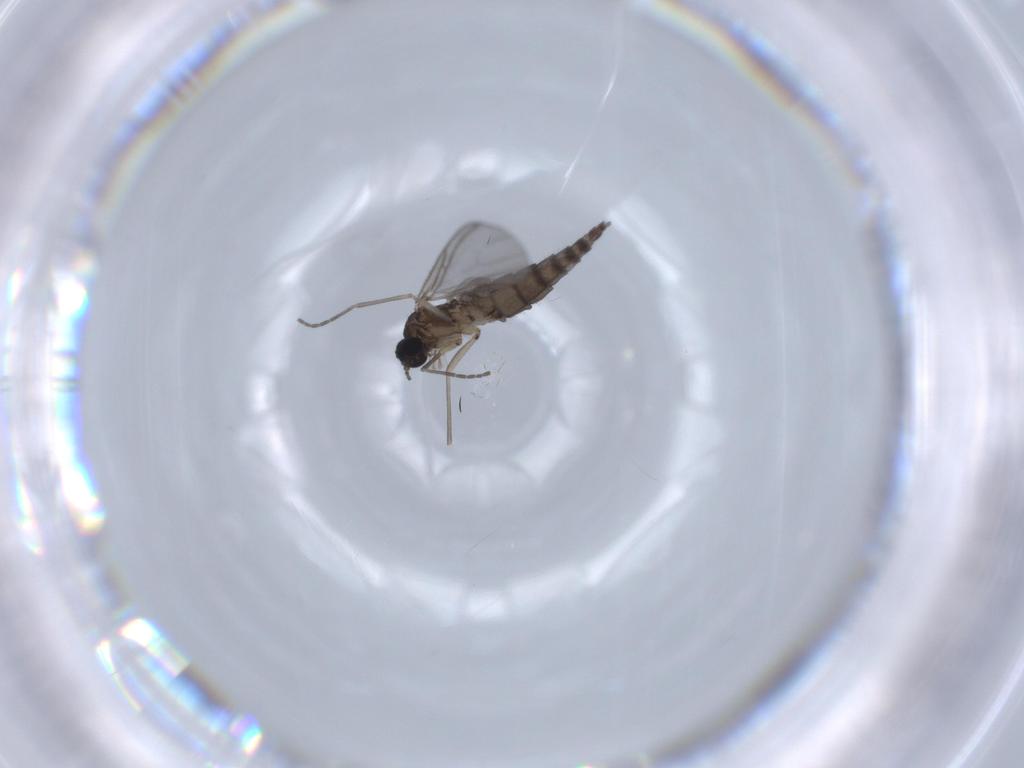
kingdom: Animalia
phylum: Arthropoda
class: Insecta
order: Diptera
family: Sciaridae
